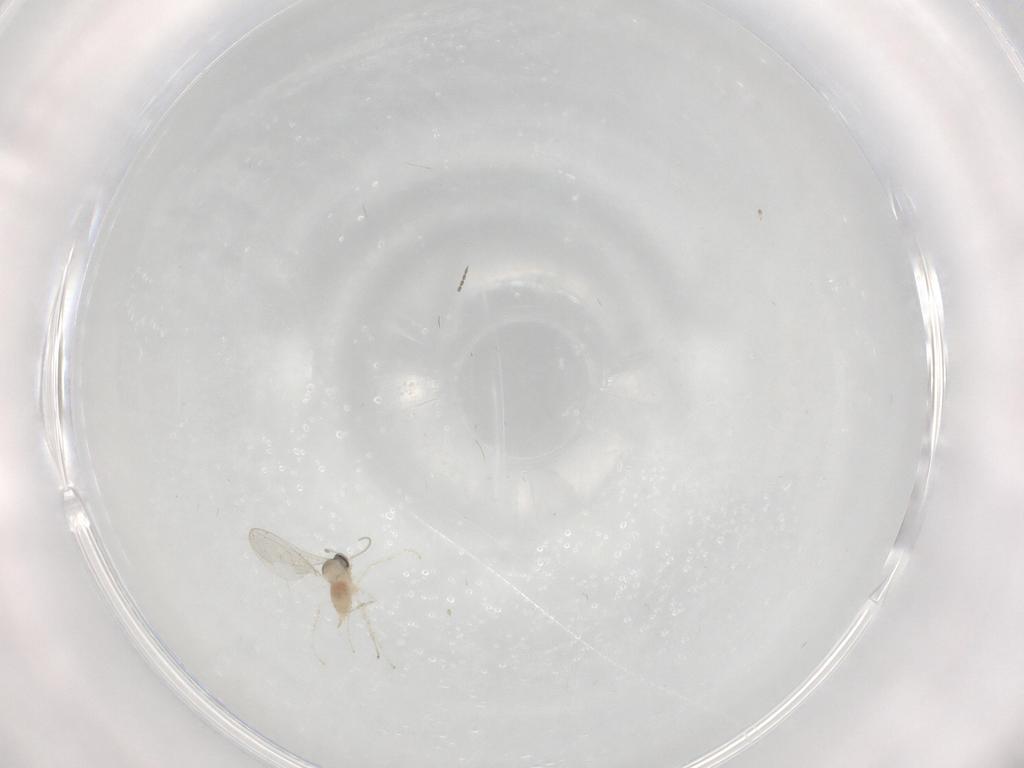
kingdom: Animalia
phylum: Arthropoda
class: Insecta
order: Diptera
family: Cecidomyiidae
